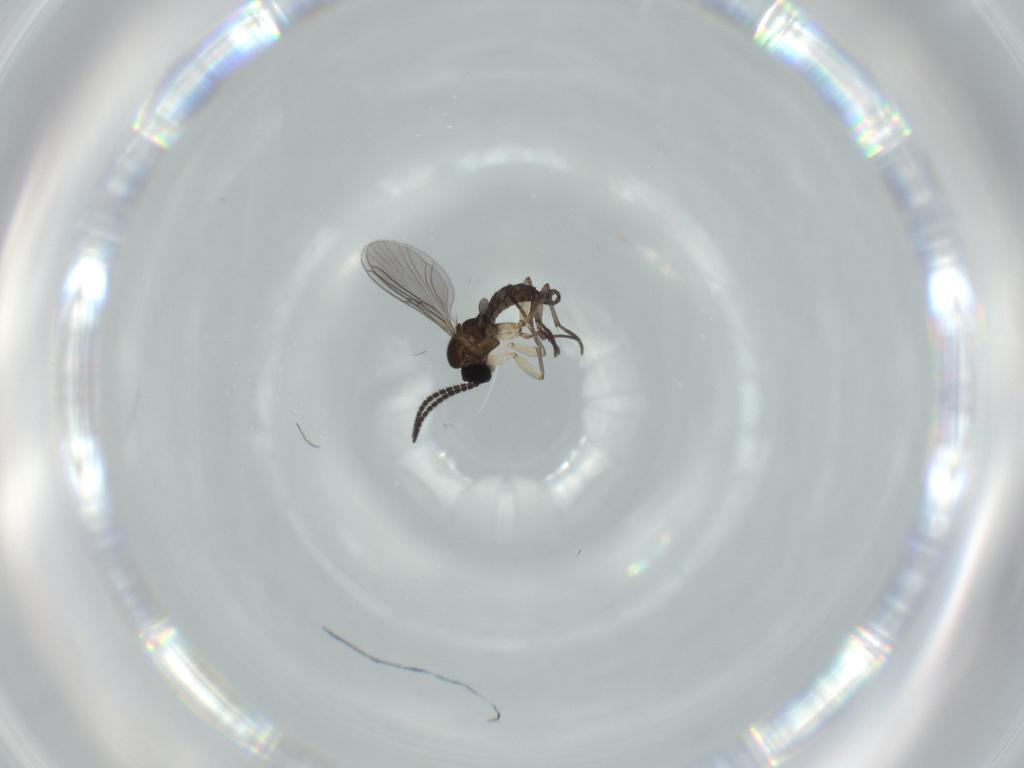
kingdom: Animalia
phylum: Arthropoda
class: Insecta
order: Diptera
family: Sciaridae
